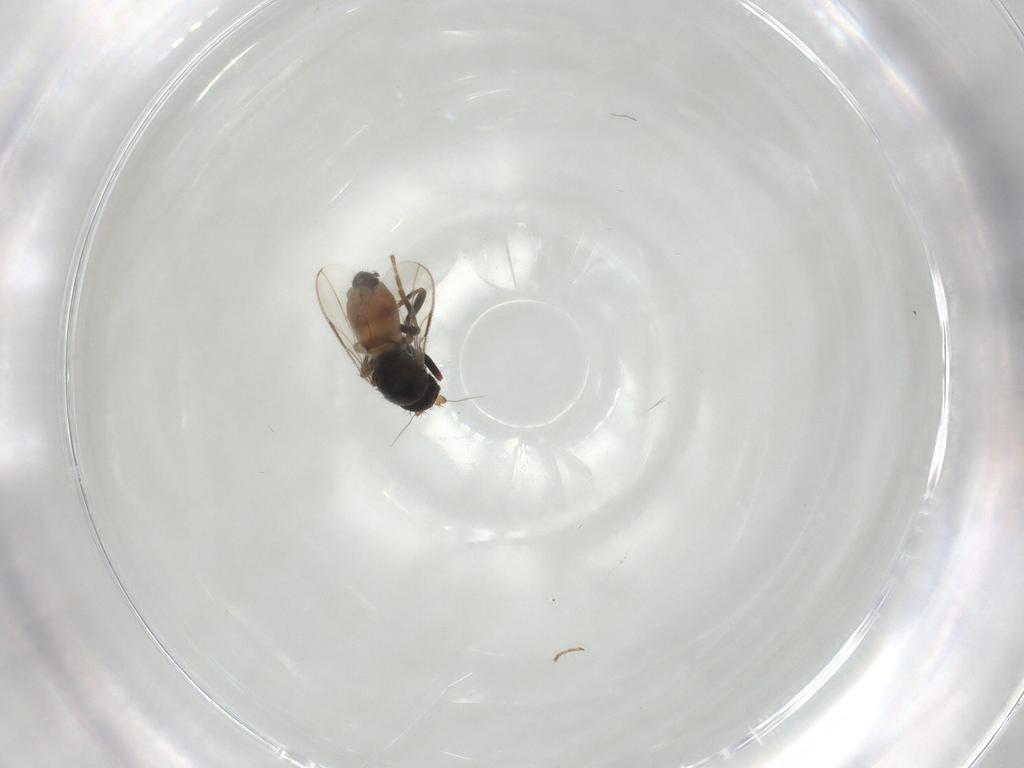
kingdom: Animalia
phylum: Arthropoda
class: Insecta
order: Diptera
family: Sphaeroceridae
